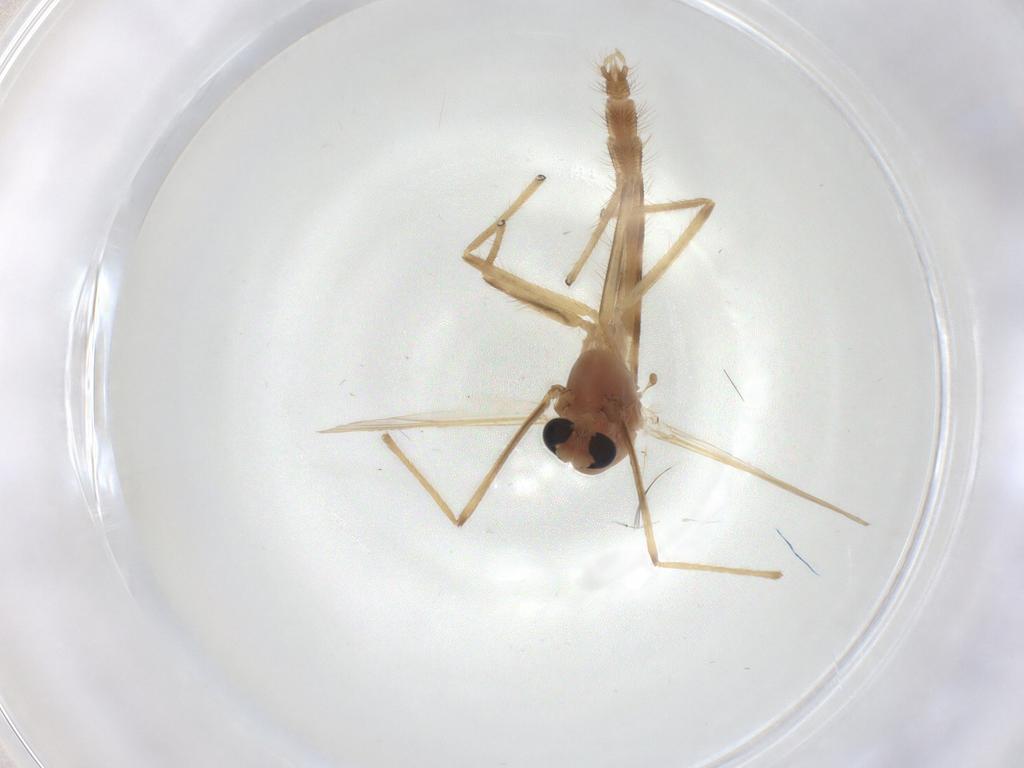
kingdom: Animalia
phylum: Arthropoda
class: Insecta
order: Diptera
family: Chironomidae
